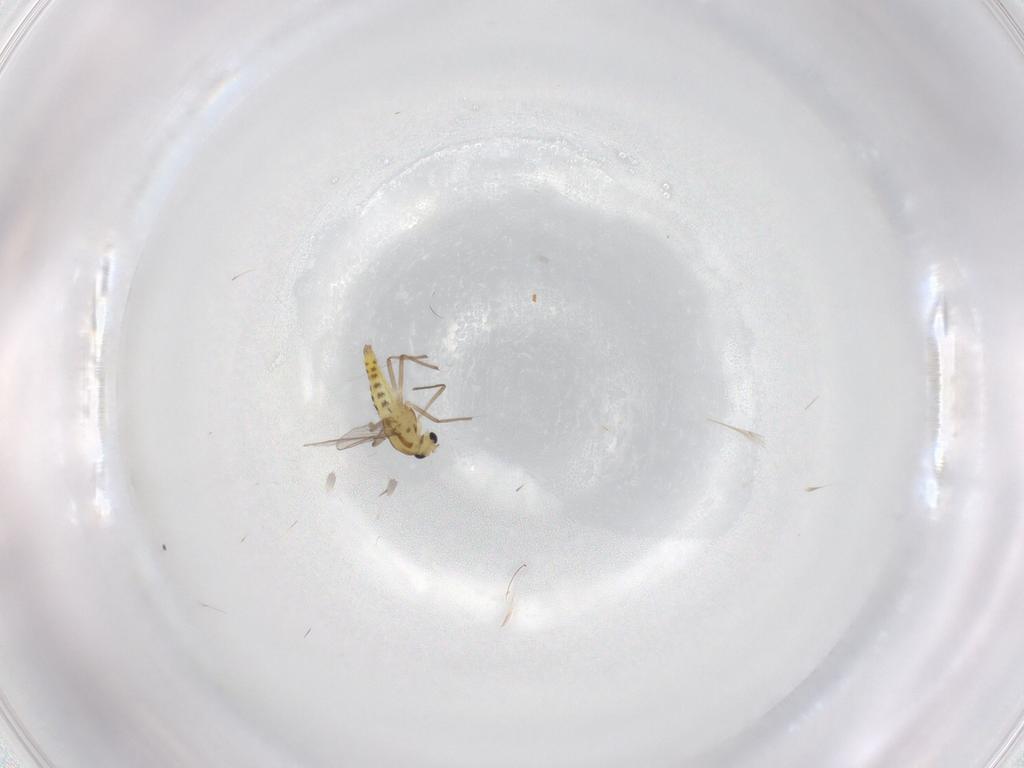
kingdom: Animalia
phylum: Arthropoda
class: Insecta
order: Diptera
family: Chironomidae
